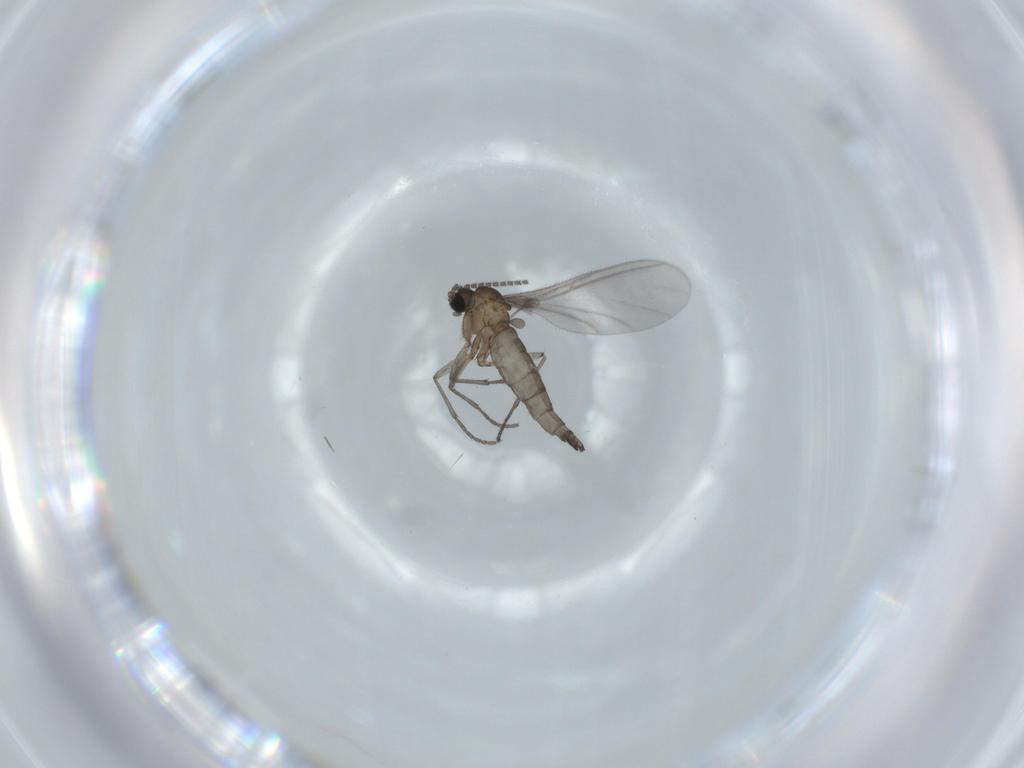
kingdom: Animalia
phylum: Arthropoda
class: Insecta
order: Diptera
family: Sciaridae
